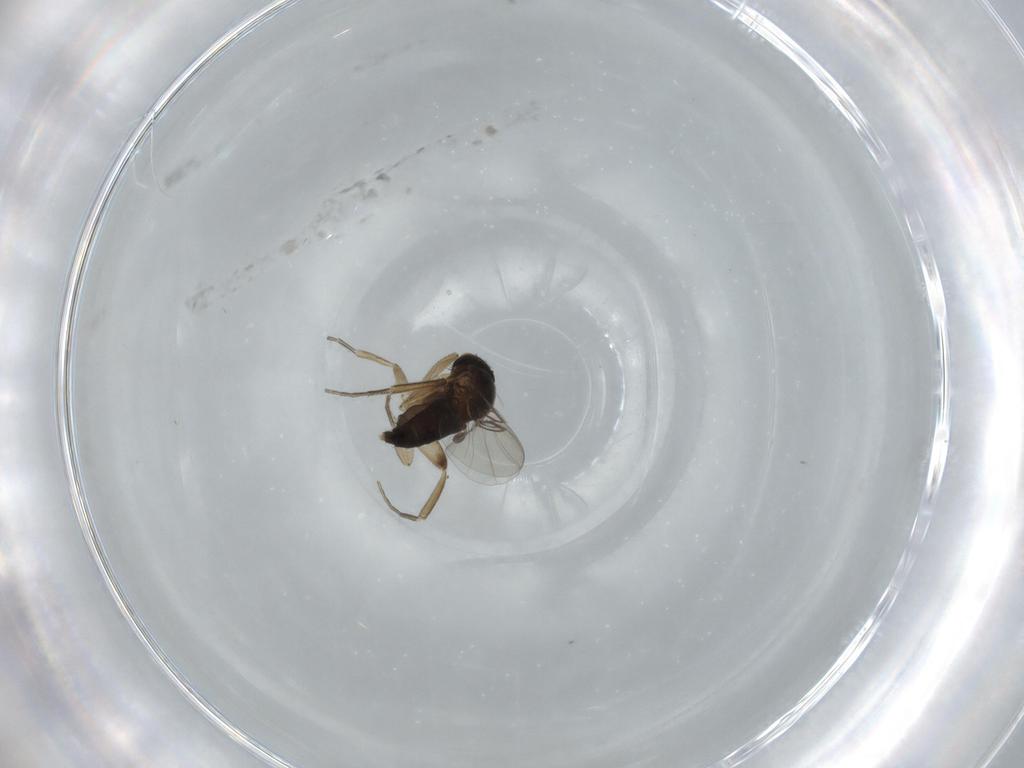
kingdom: Animalia
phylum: Arthropoda
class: Insecta
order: Diptera
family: Phoridae
